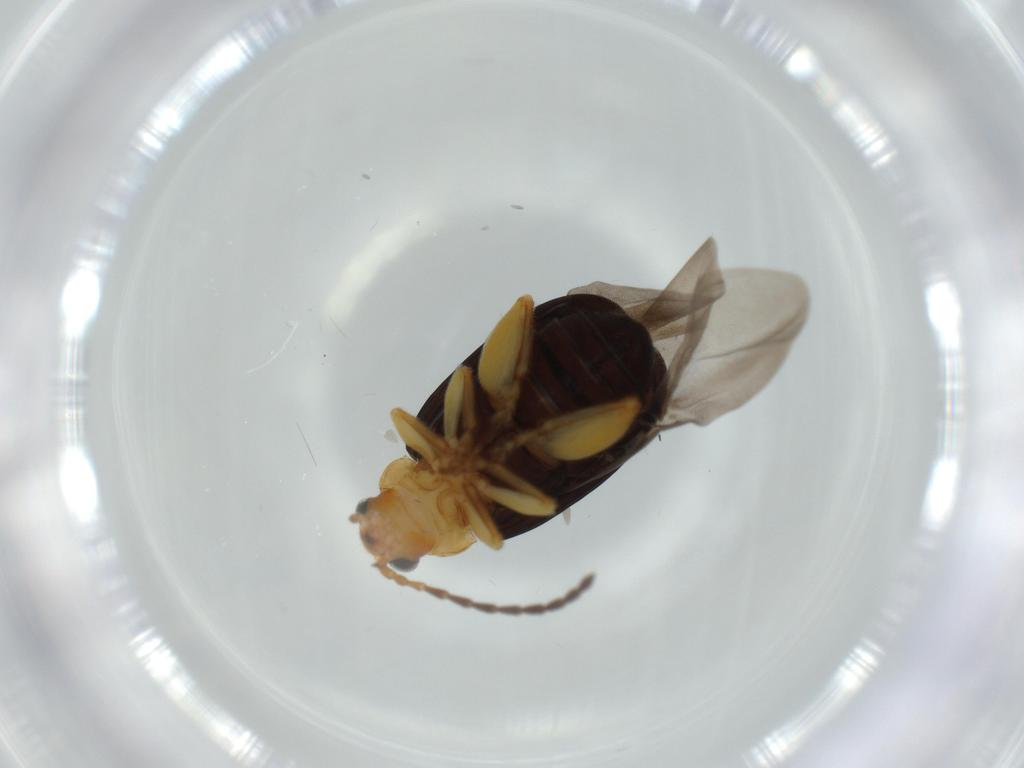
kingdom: Animalia
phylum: Arthropoda
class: Insecta
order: Coleoptera
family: Chrysomelidae
